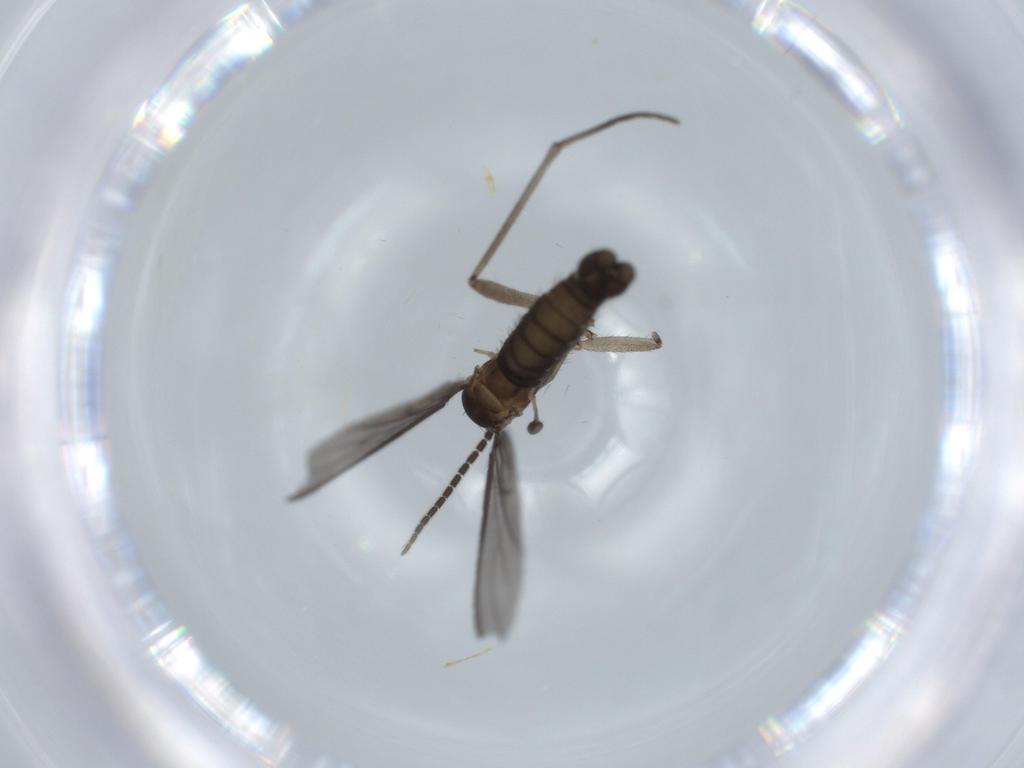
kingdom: Animalia
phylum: Arthropoda
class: Insecta
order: Diptera
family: Sciaridae
